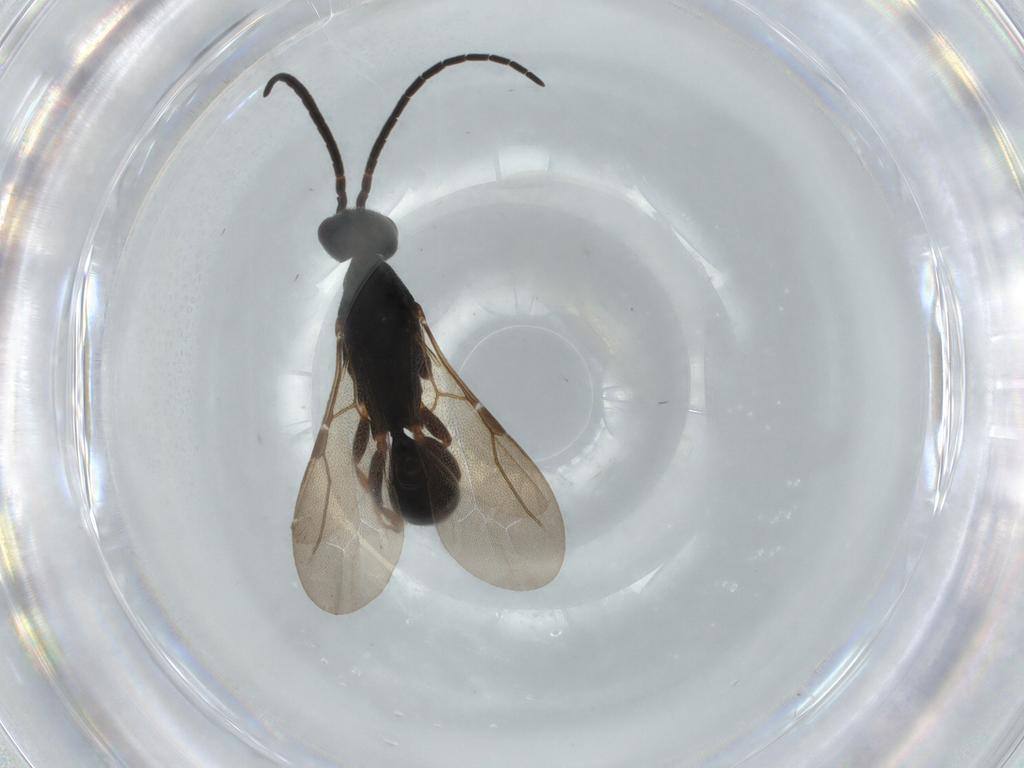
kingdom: Animalia
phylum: Arthropoda
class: Insecta
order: Hymenoptera
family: Bethylidae
